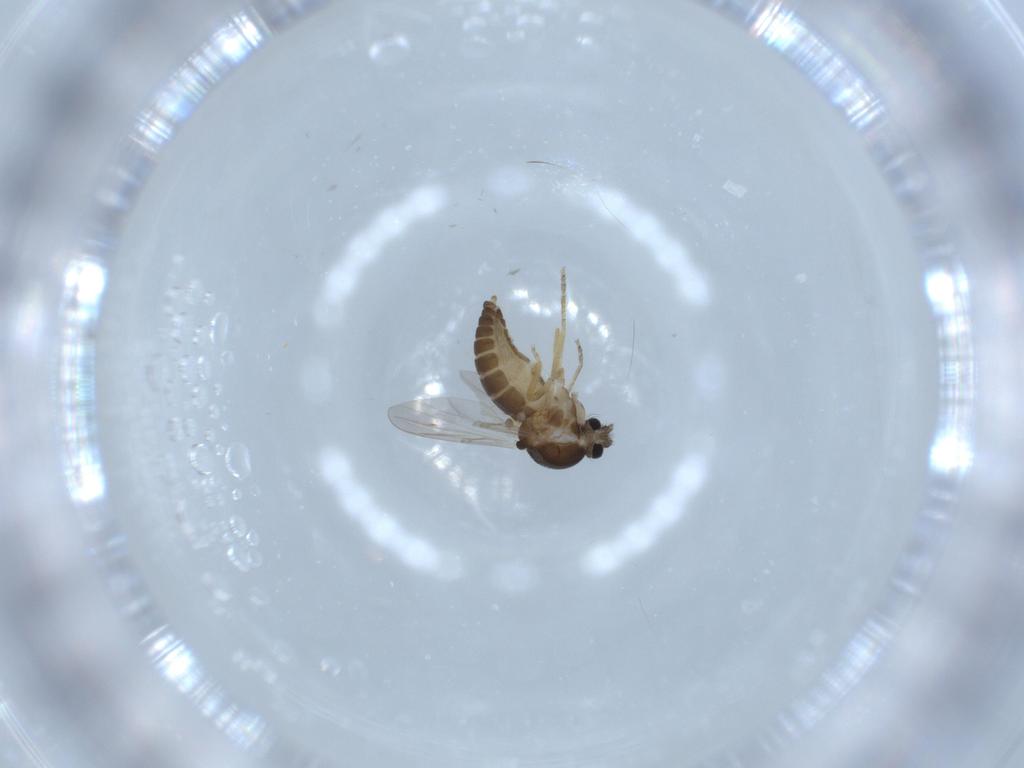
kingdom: Animalia
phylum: Arthropoda
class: Insecta
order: Diptera
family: Ceratopogonidae
